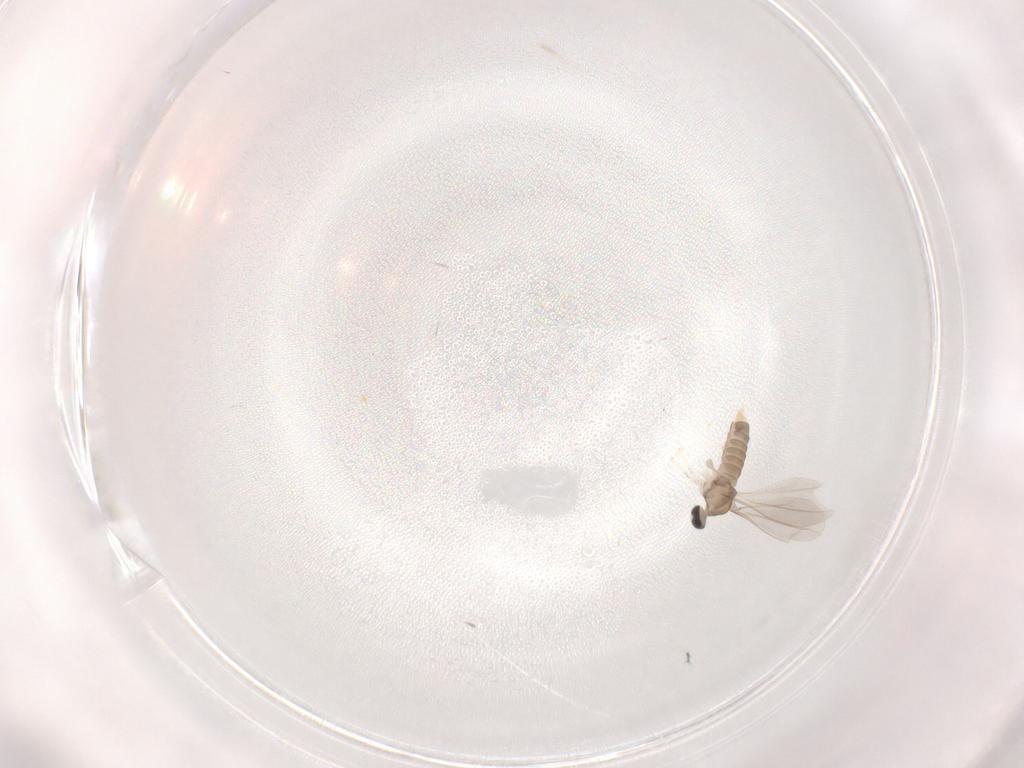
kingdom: Animalia
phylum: Arthropoda
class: Insecta
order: Diptera
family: Cecidomyiidae
